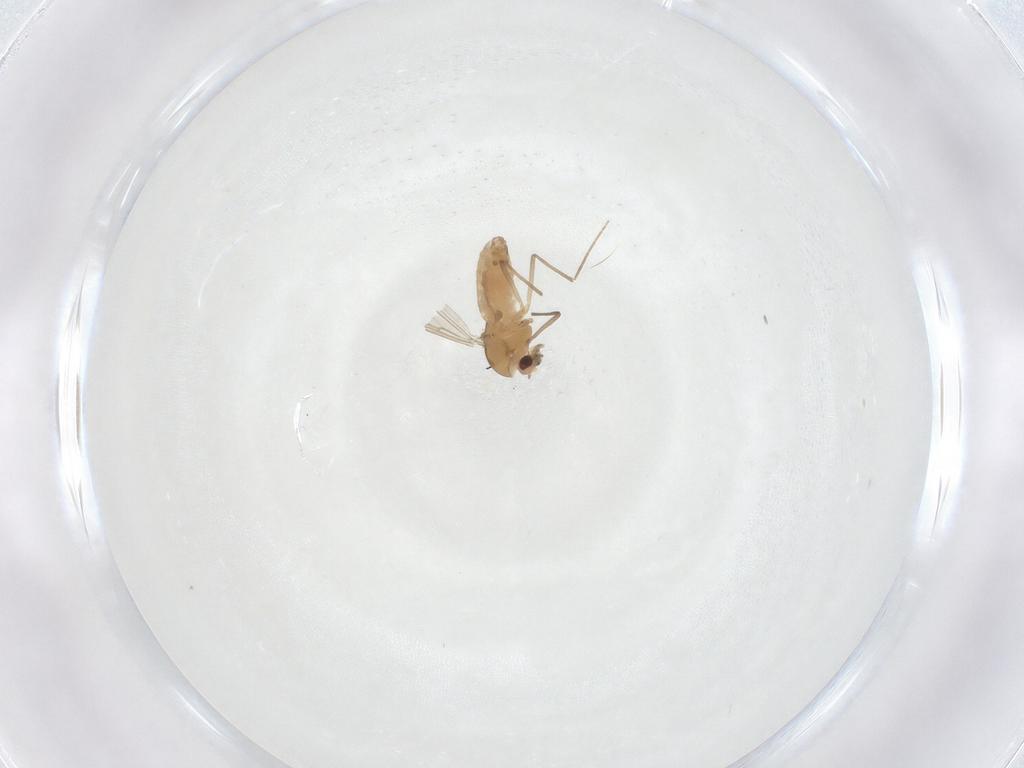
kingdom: Animalia
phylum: Arthropoda
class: Insecta
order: Diptera
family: Chironomidae
